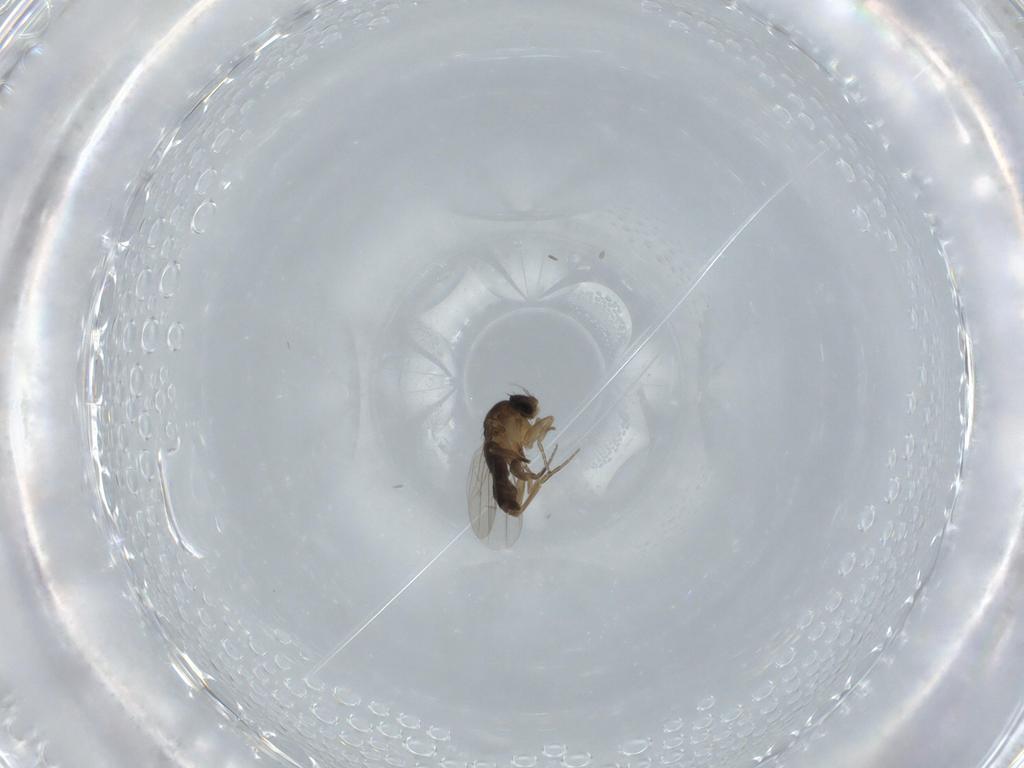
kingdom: Animalia
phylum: Arthropoda
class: Insecta
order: Diptera
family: Phoridae
